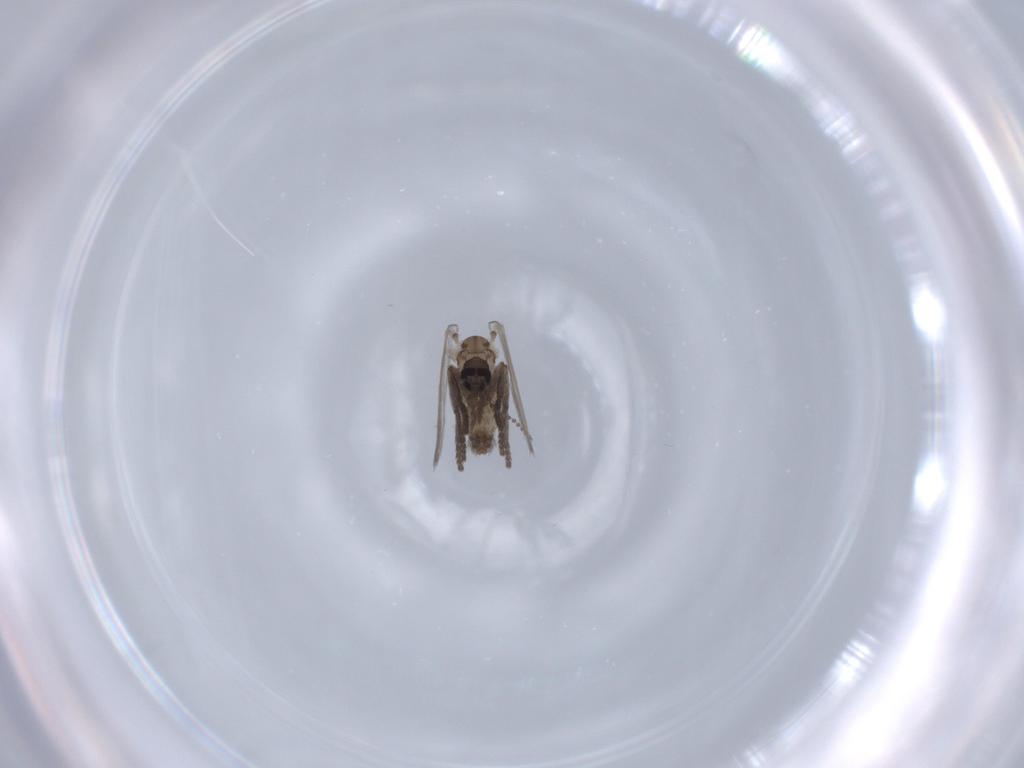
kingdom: Animalia
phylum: Arthropoda
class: Insecta
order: Diptera
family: Psychodidae
